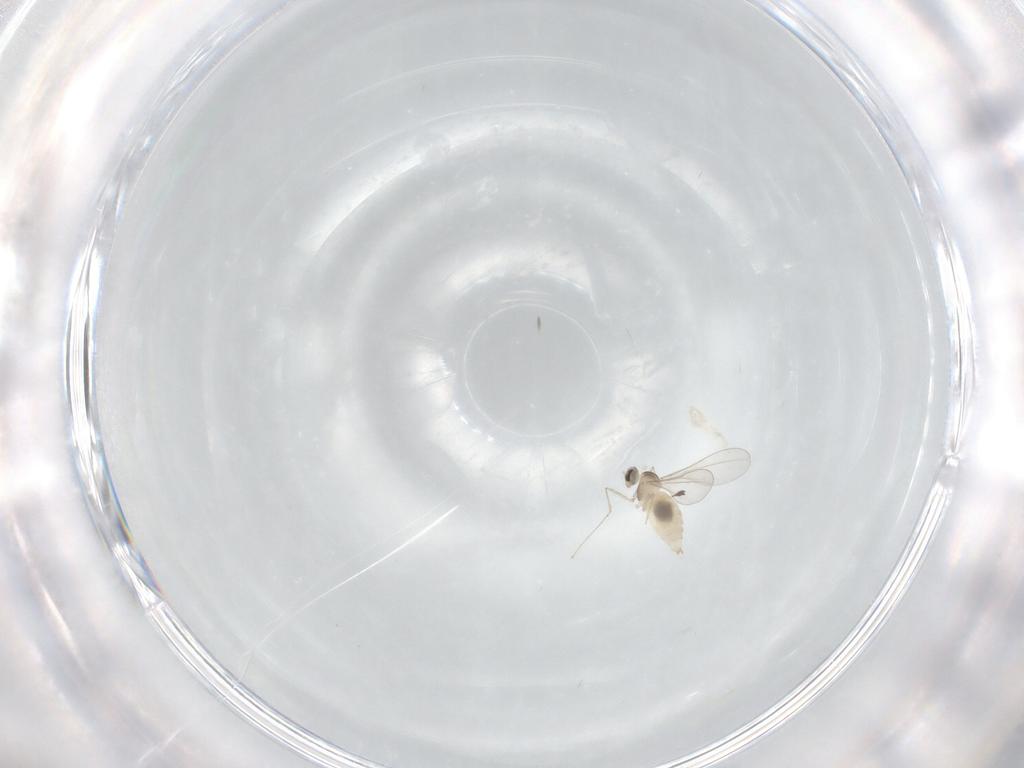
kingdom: Animalia
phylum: Arthropoda
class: Insecta
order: Diptera
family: Cecidomyiidae
